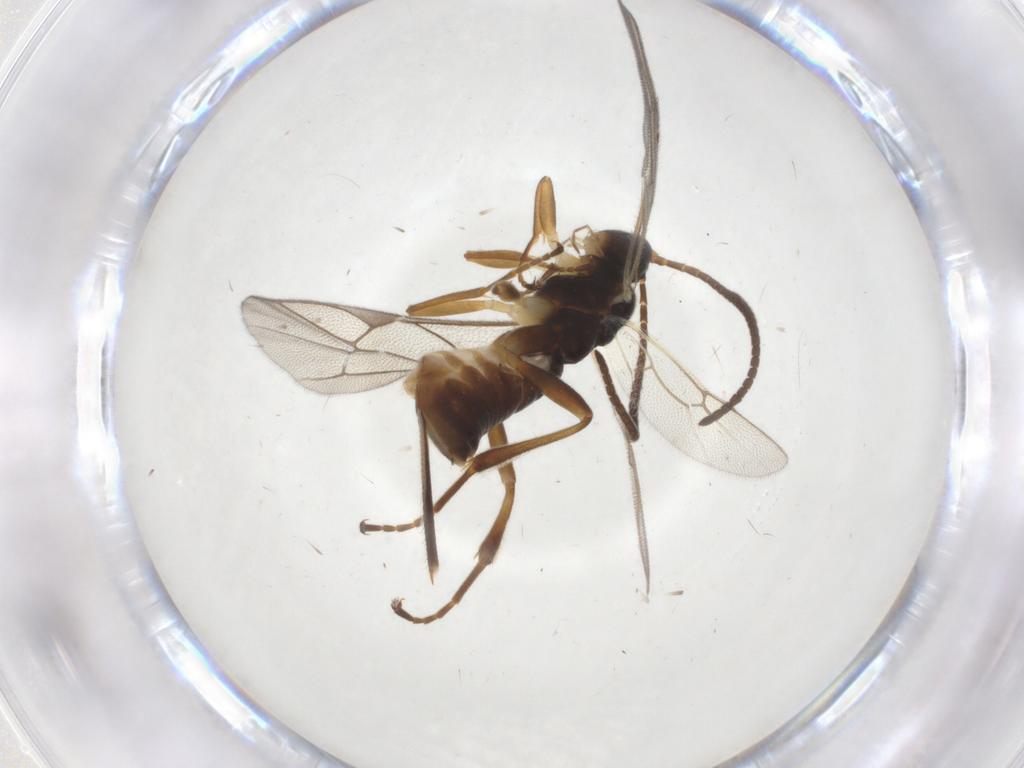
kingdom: Animalia
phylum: Arthropoda
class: Insecta
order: Hymenoptera
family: Ichneumonidae
